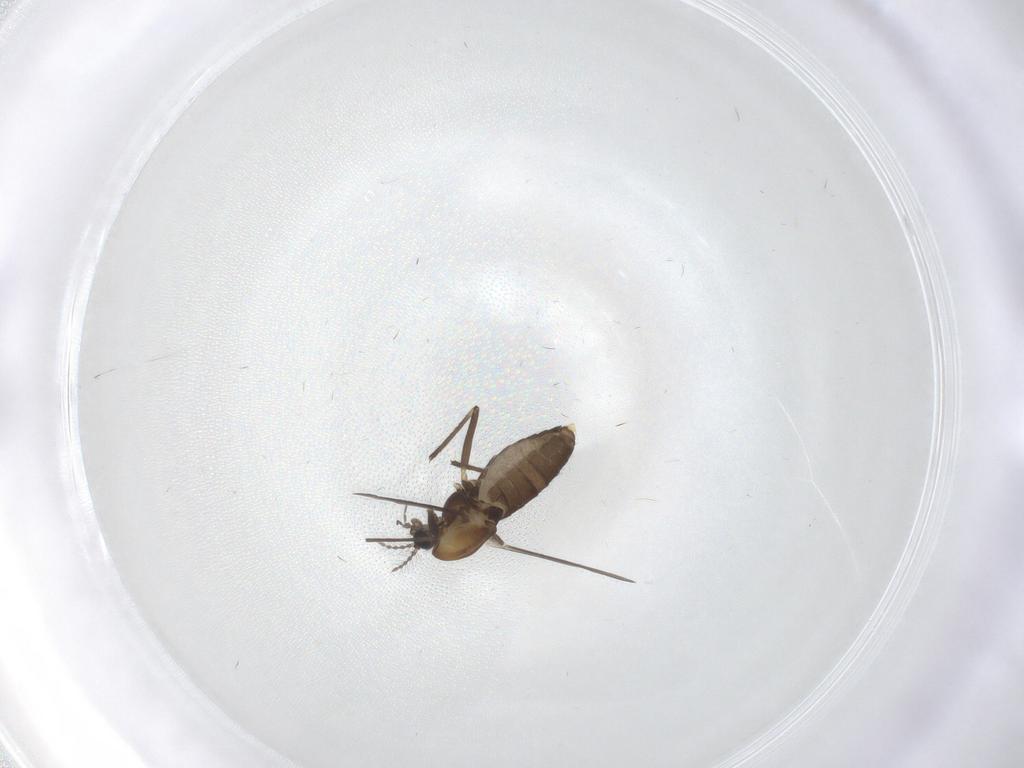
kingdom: Animalia
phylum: Arthropoda
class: Insecta
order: Diptera
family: Chironomidae
